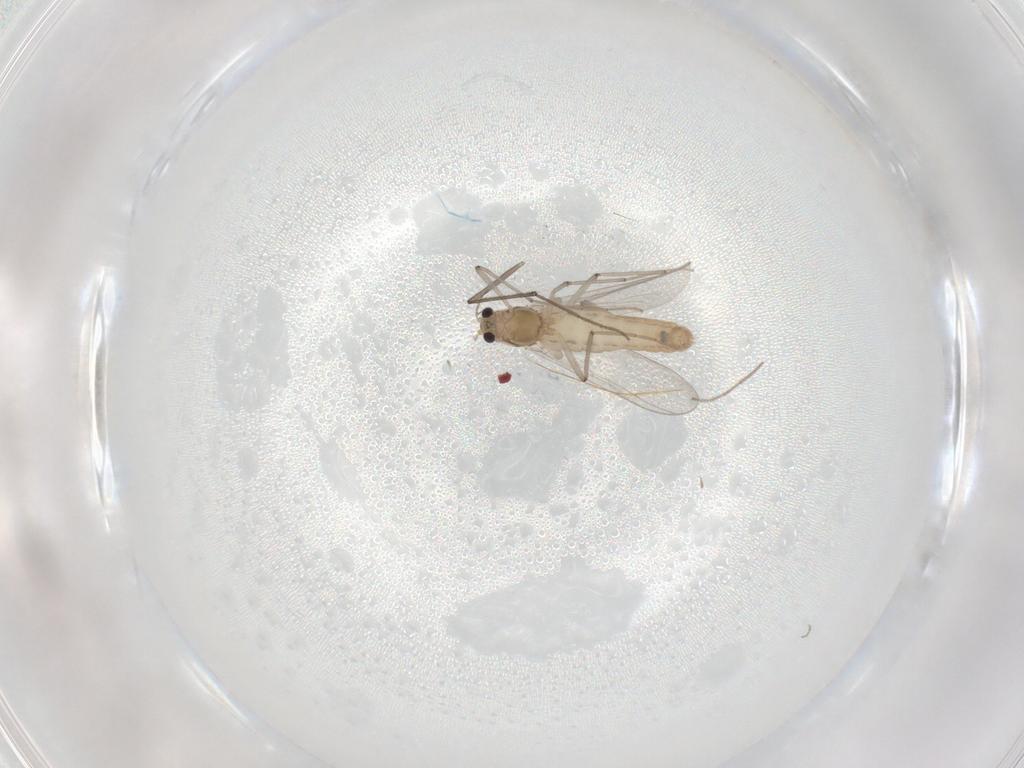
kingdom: Animalia
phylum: Arthropoda
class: Insecta
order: Diptera
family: Chironomidae
